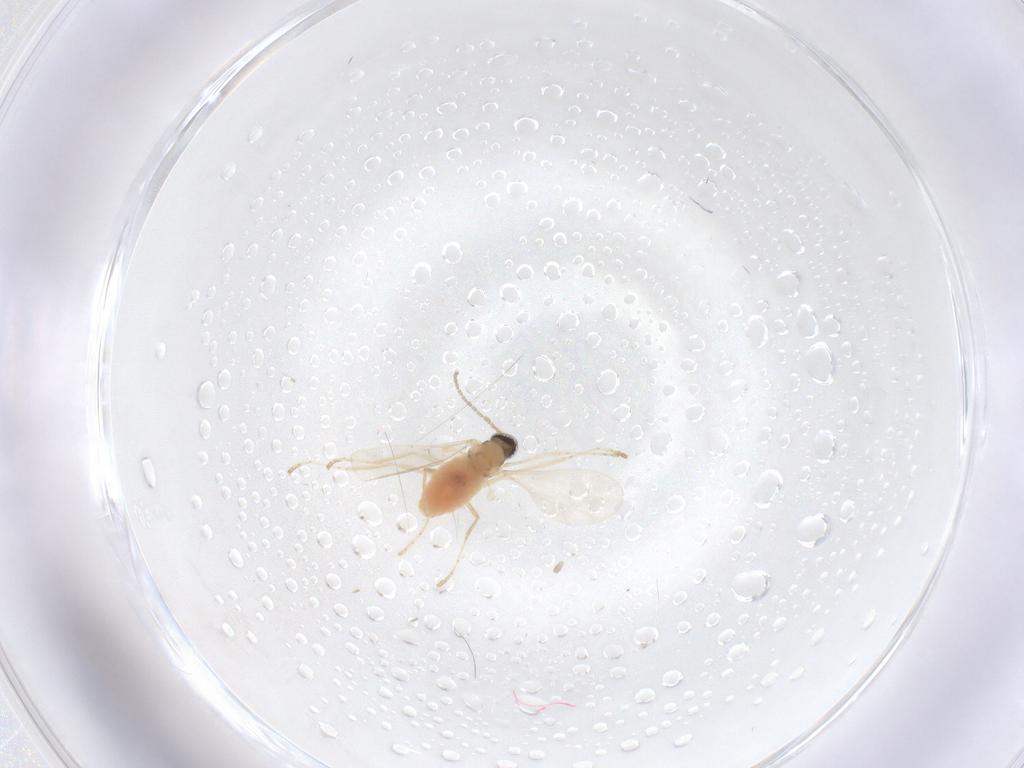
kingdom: Animalia
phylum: Arthropoda
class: Insecta
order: Diptera
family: Cecidomyiidae
